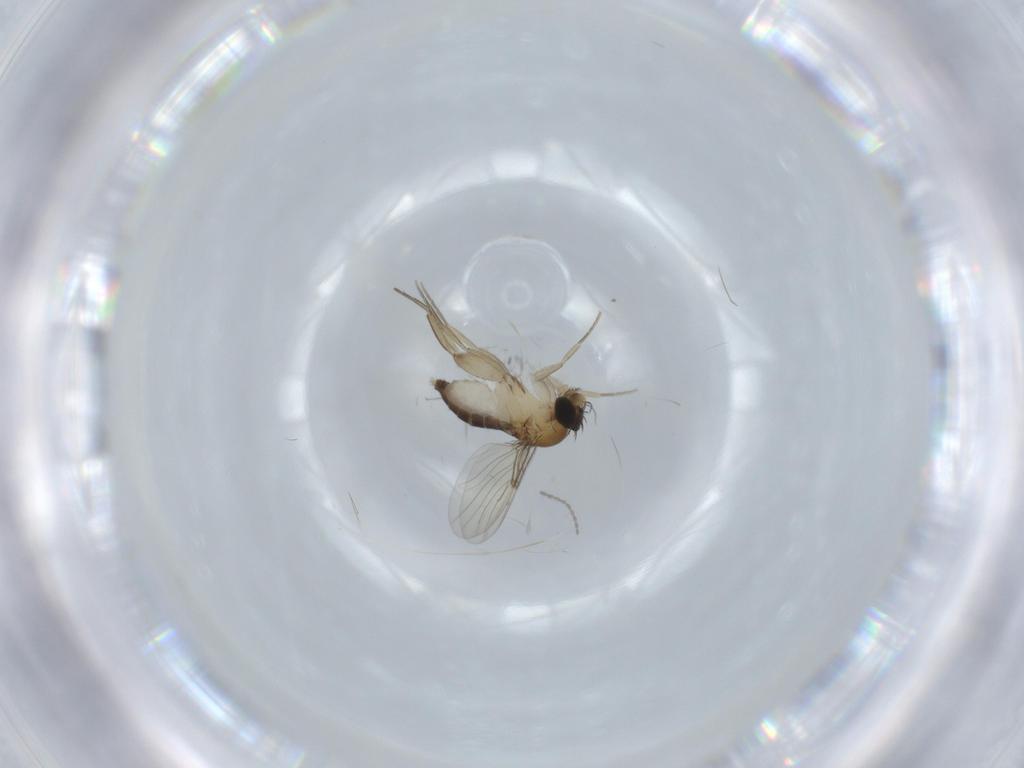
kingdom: Animalia
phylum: Arthropoda
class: Insecta
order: Diptera
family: Phoridae
